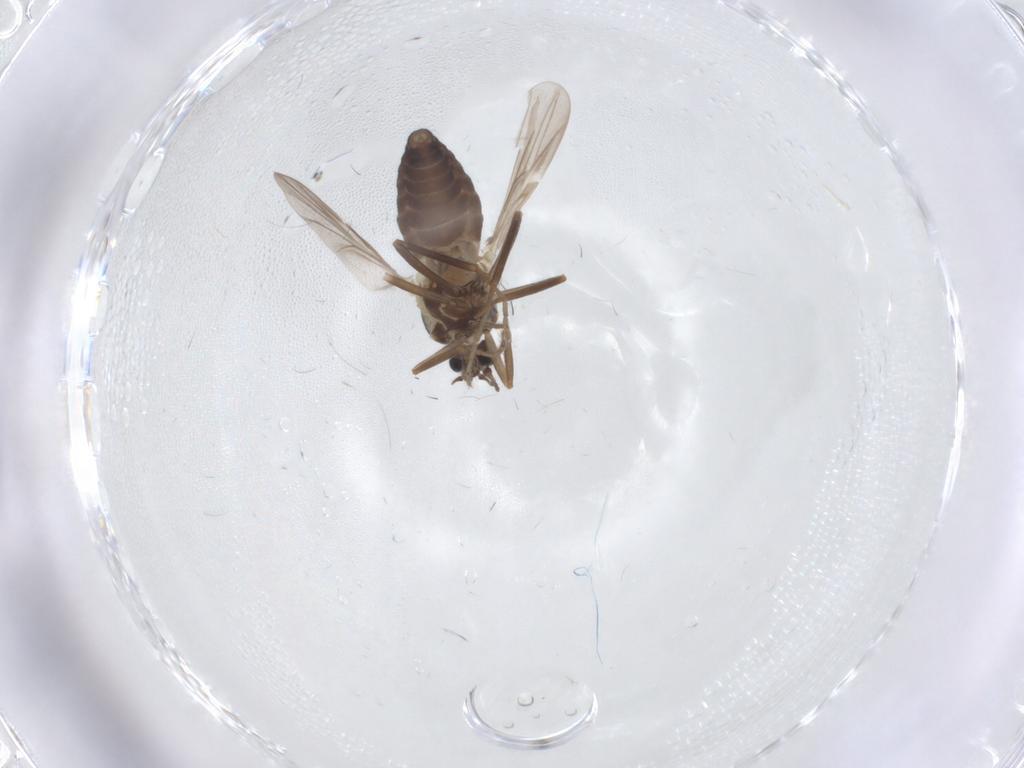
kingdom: Animalia
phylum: Arthropoda
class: Insecta
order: Diptera
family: Ceratopogonidae
